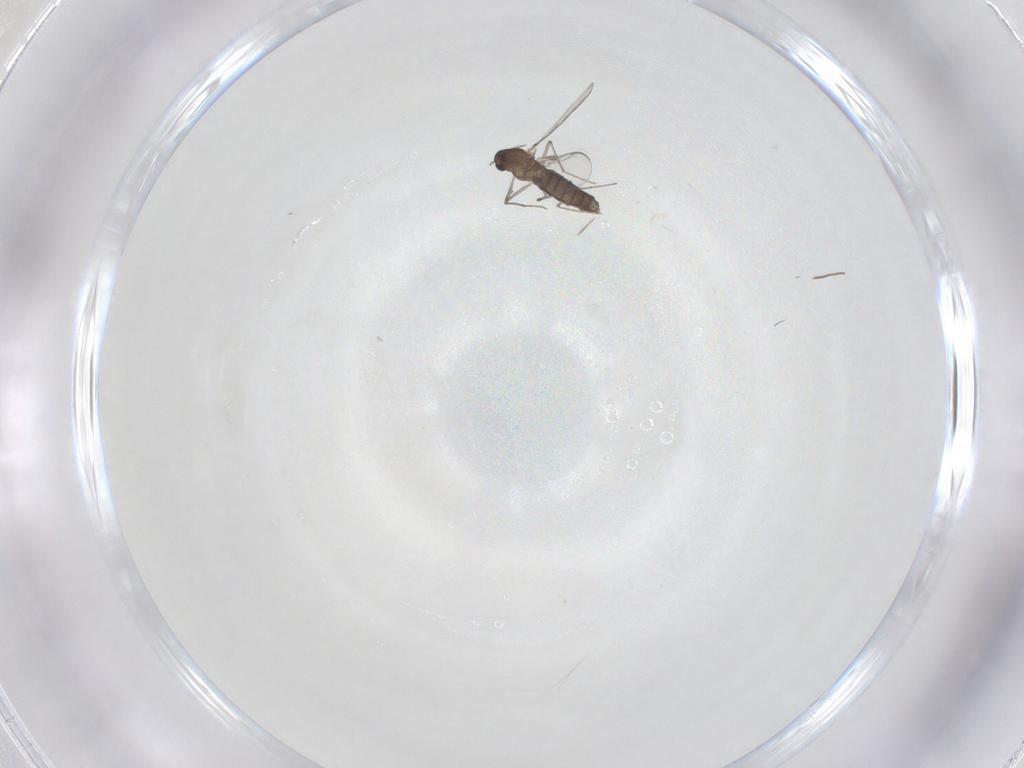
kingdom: Animalia
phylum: Arthropoda
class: Insecta
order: Diptera
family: Chironomidae
